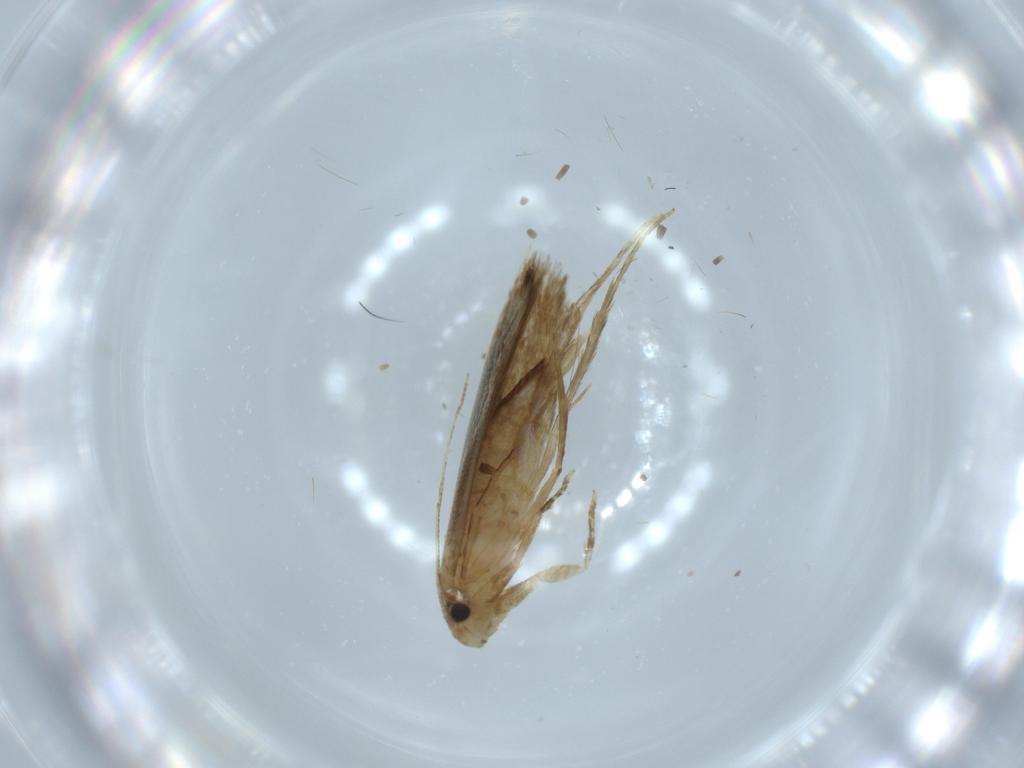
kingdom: Animalia
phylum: Arthropoda
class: Insecta
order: Lepidoptera
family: Tineidae
